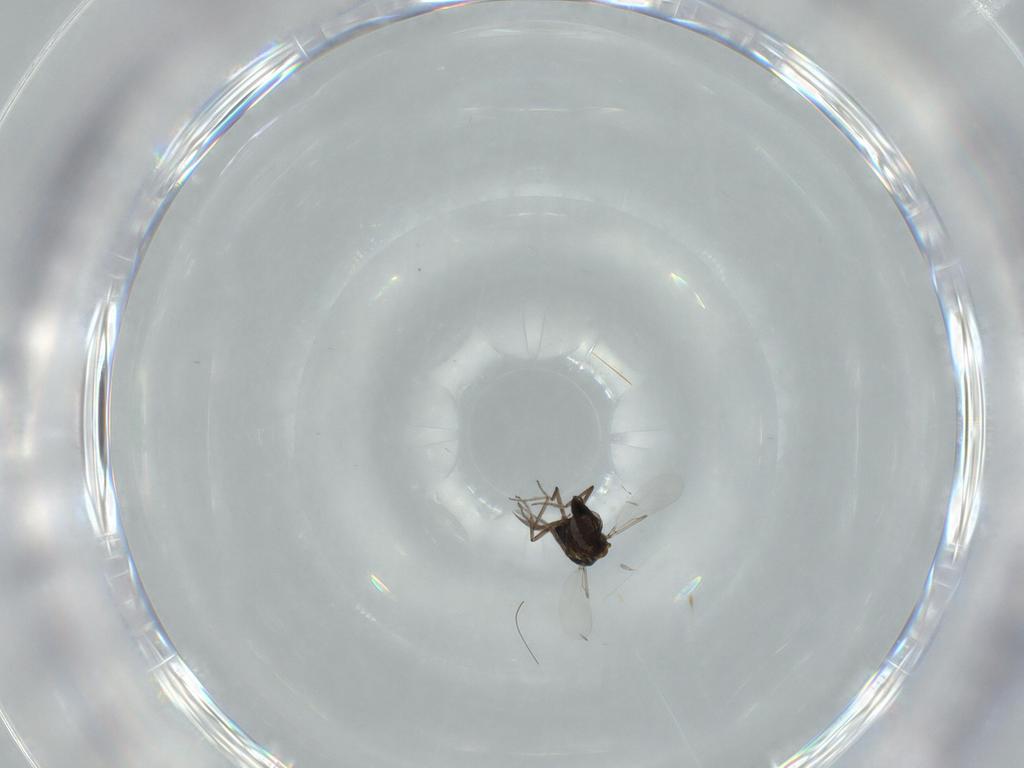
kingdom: Animalia
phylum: Arthropoda
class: Insecta
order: Diptera
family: Ceratopogonidae
